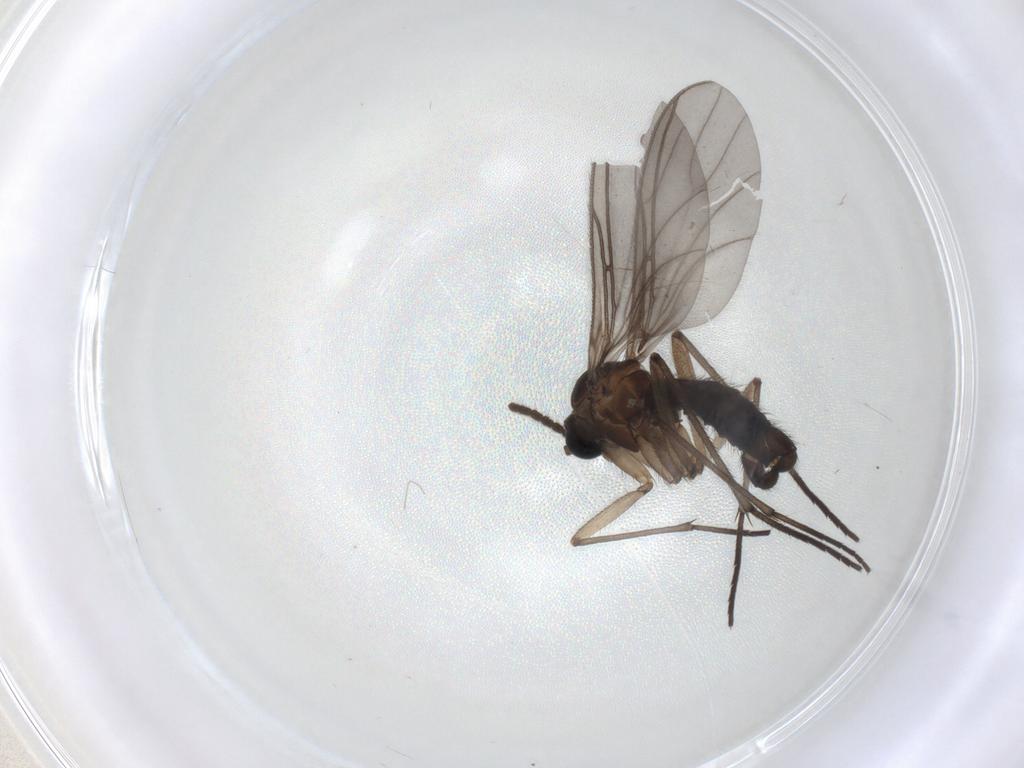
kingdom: Animalia
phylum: Arthropoda
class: Insecta
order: Diptera
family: Sciaridae
